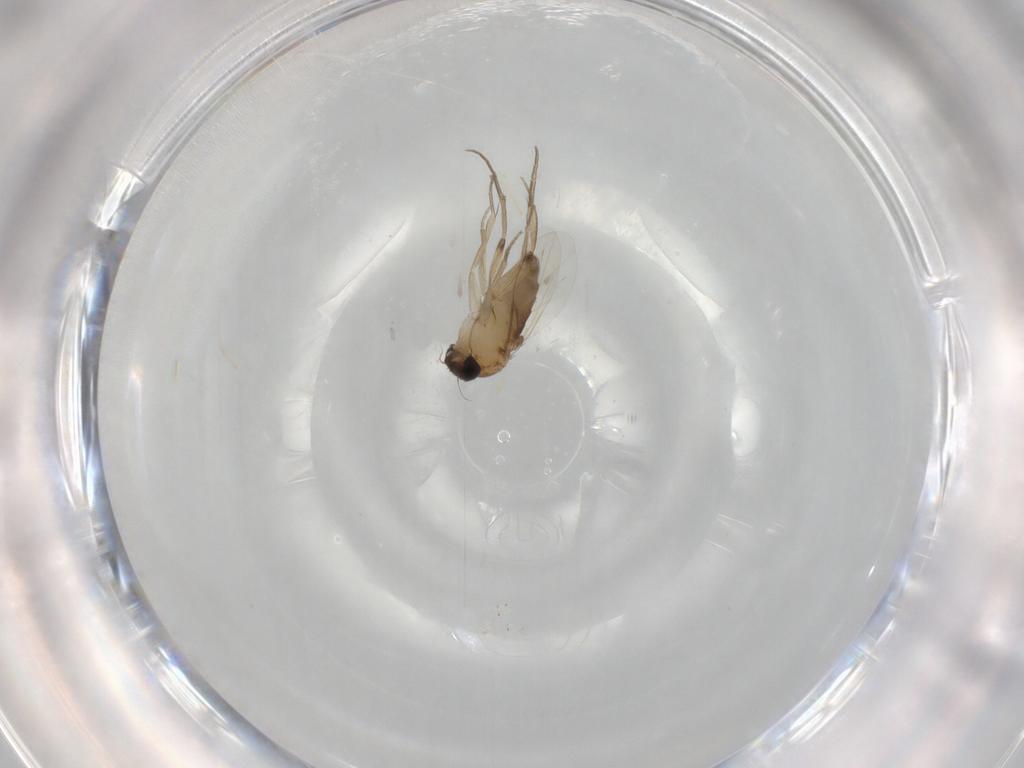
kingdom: Animalia
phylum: Arthropoda
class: Insecta
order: Diptera
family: Phoridae
